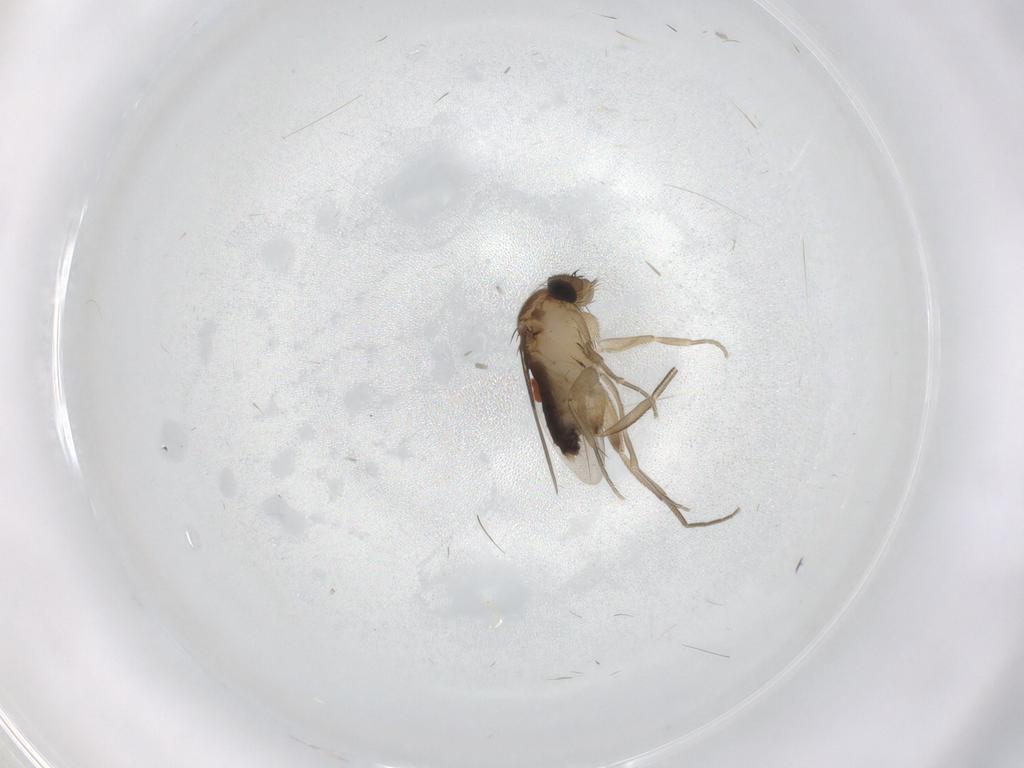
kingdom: Animalia
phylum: Arthropoda
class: Insecta
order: Diptera
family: Phoridae
